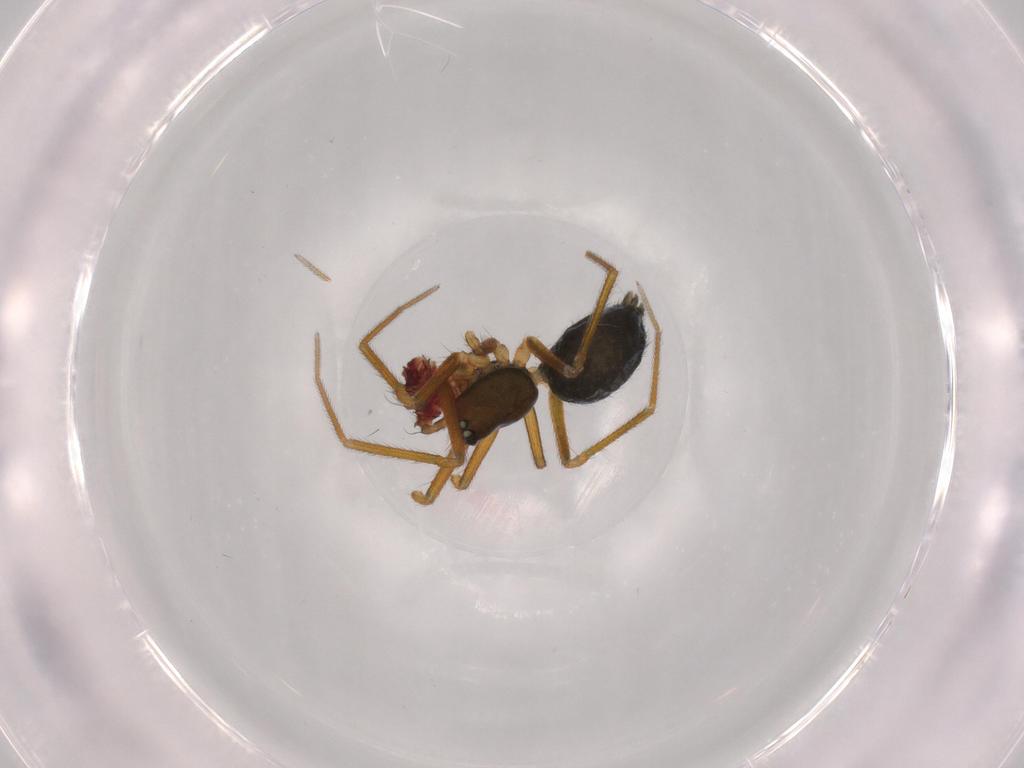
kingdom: Animalia
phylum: Arthropoda
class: Arachnida
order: Araneae
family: Linyphiidae
